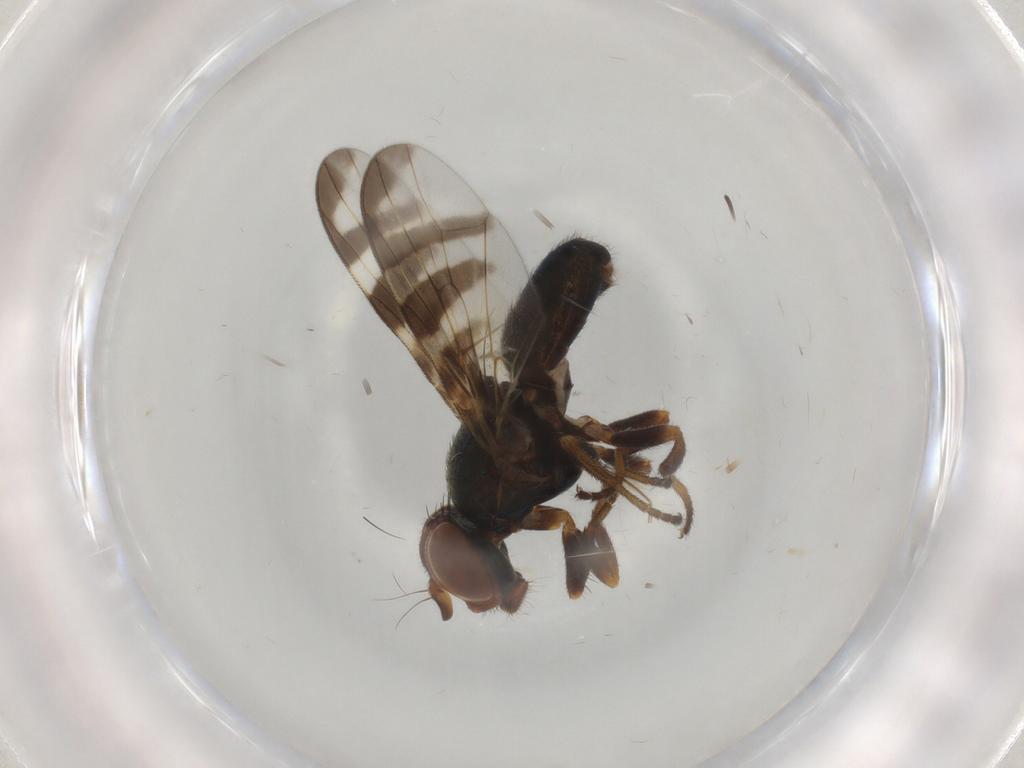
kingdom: Animalia
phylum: Arthropoda
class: Insecta
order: Diptera
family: Platystomatidae
